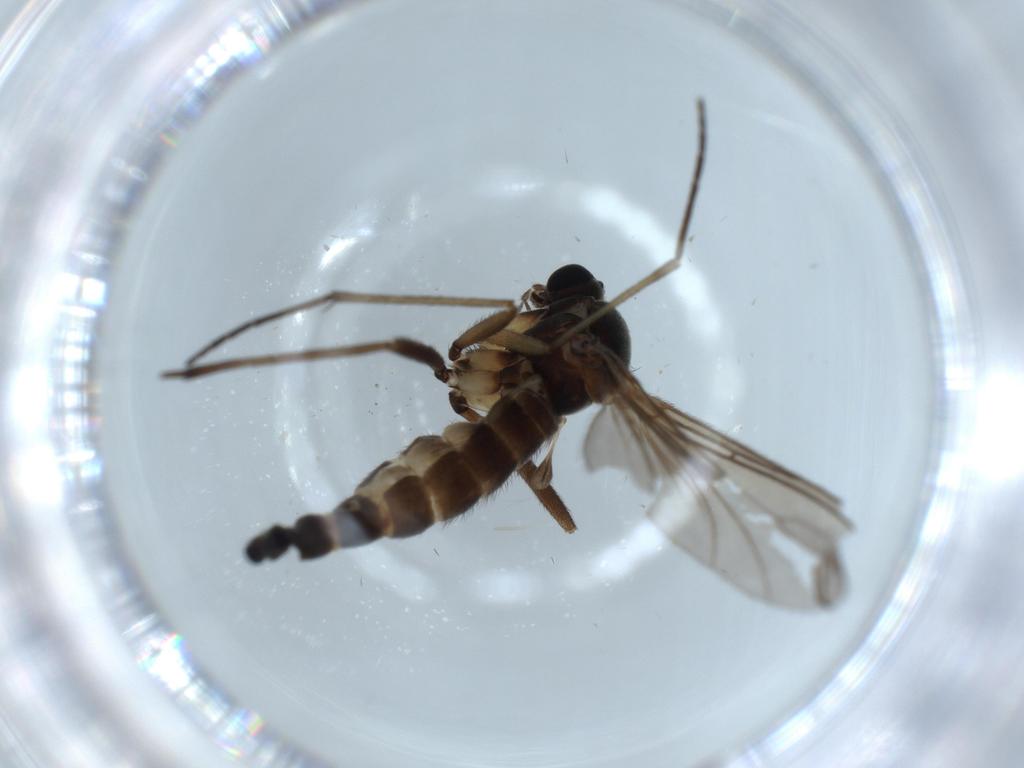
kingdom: Animalia
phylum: Arthropoda
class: Insecta
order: Diptera
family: Sciaridae
